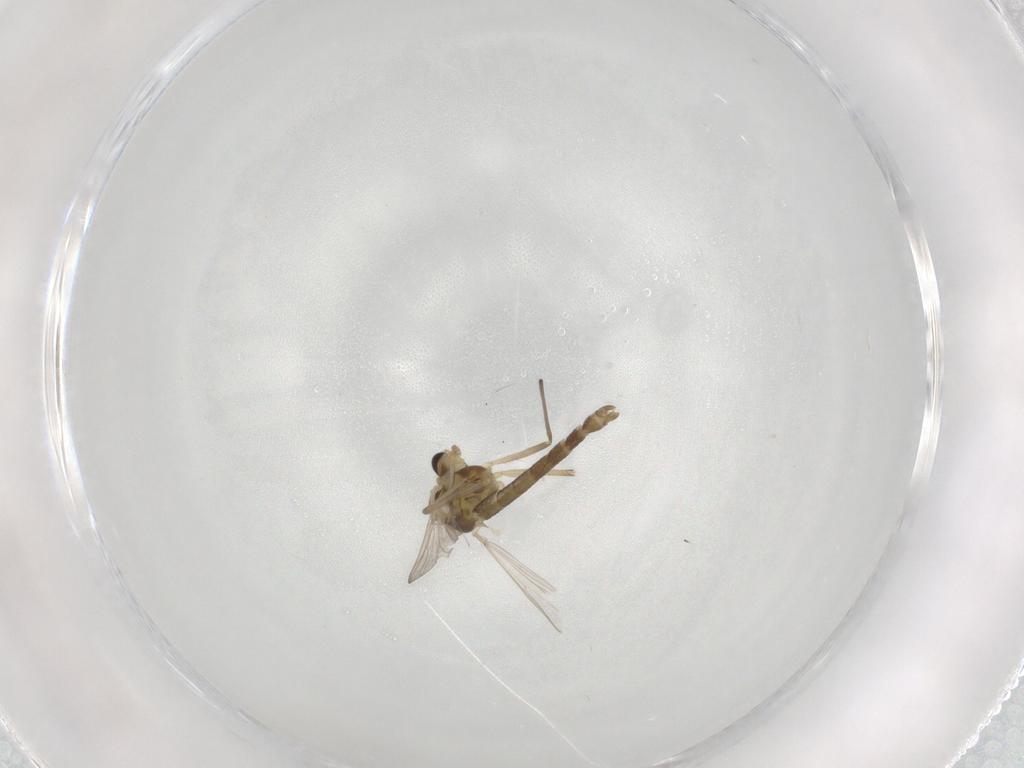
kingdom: Animalia
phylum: Arthropoda
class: Insecta
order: Diptera
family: Chironomidae
